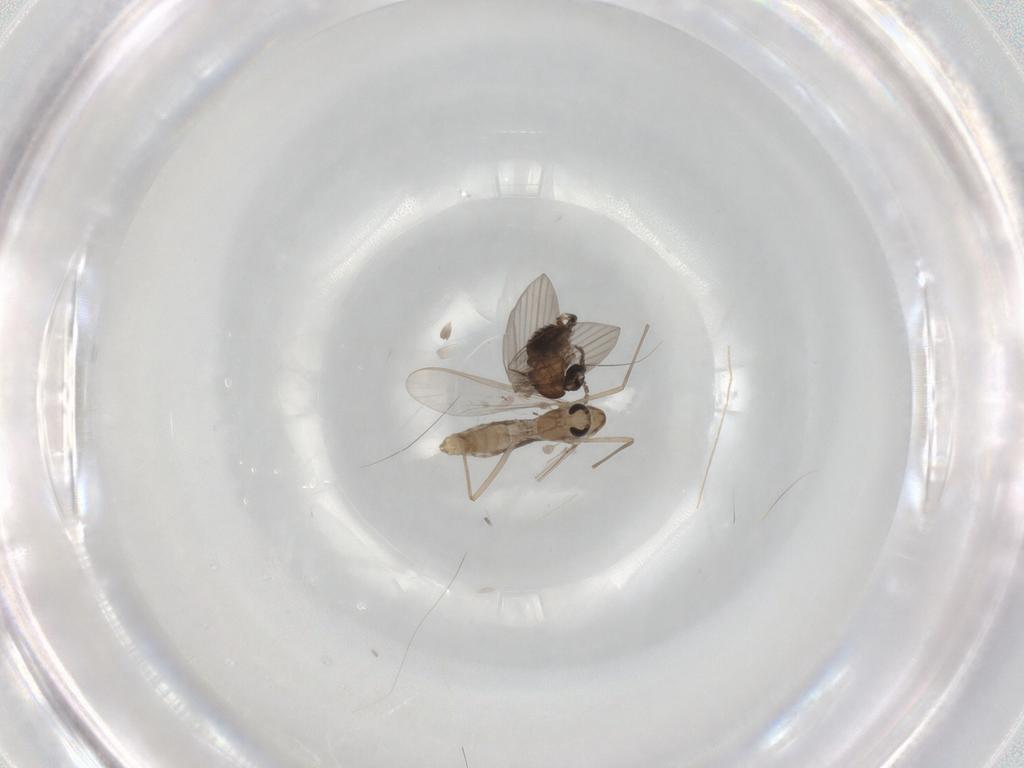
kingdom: Animalia
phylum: Arthropoda
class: Insecta
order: Diptera
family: Psychodidae
